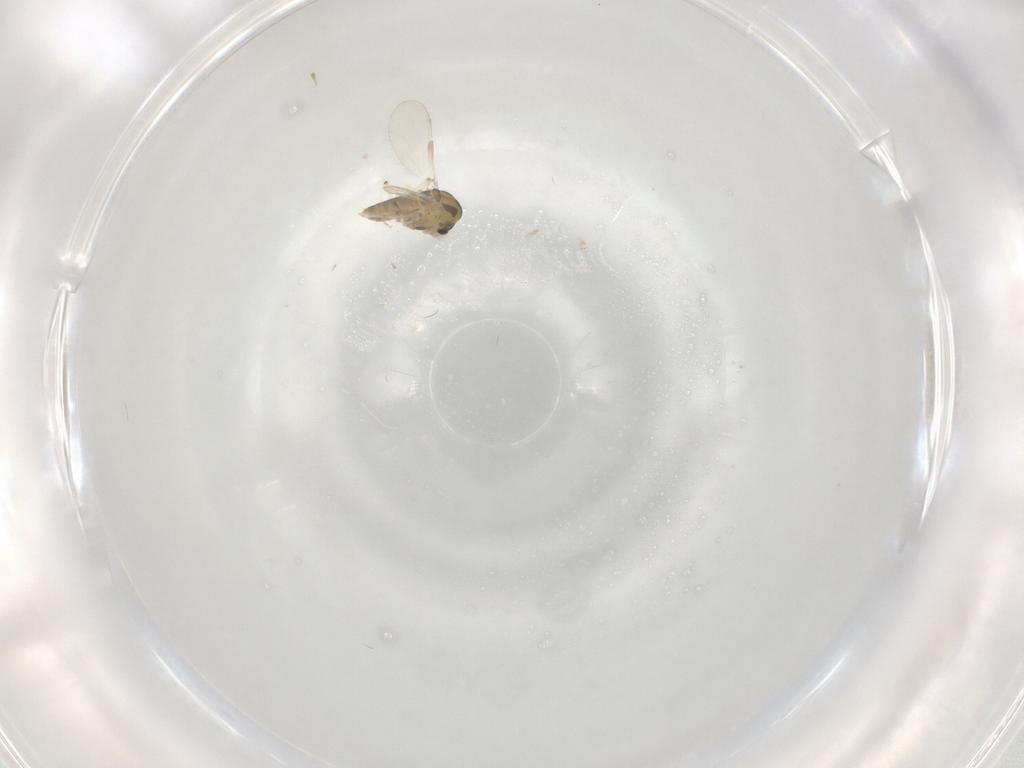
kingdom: Animalia
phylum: Arthropoda
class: Insecta
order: Diptera
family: Chironomidae
